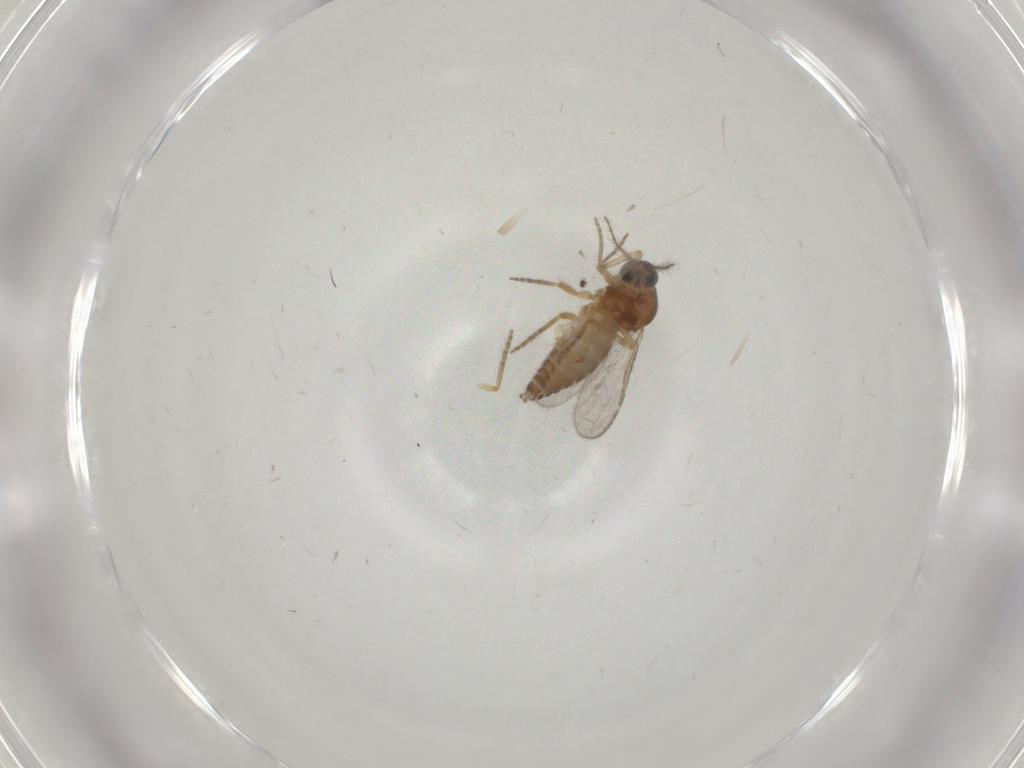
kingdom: Animalia
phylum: Arthropoda
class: Insecta
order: Diptera
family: Ceratopogonidae
